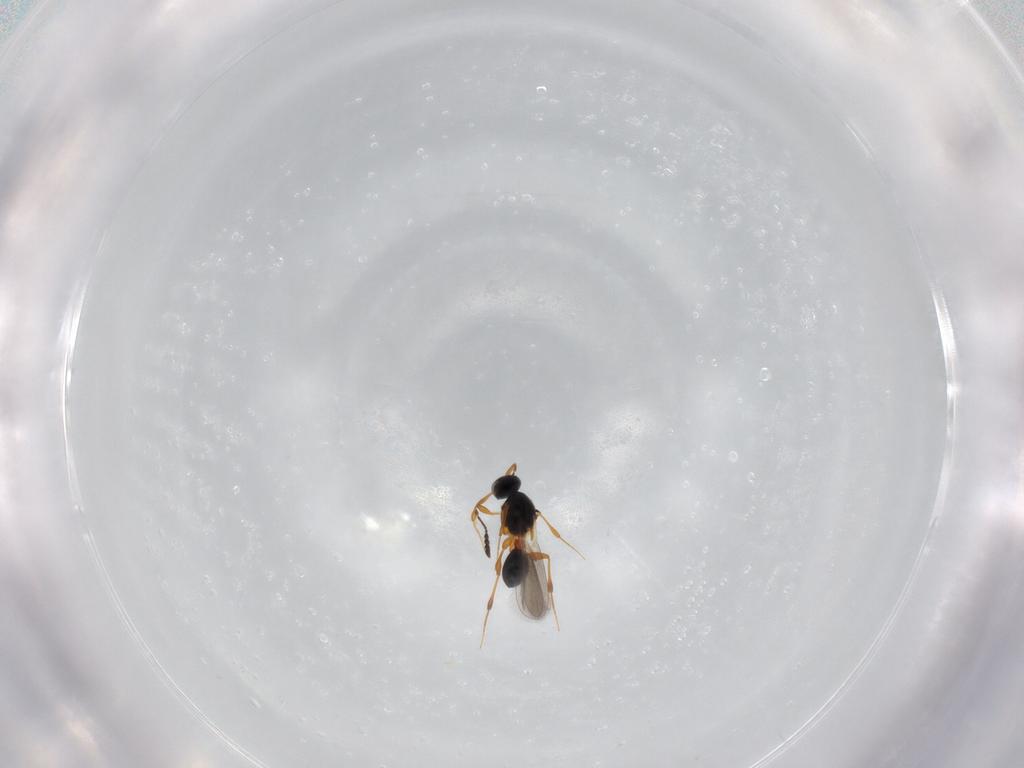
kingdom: Animalia
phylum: Arthropoda
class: Insecta
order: Hymenoptera
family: Platygastridae
